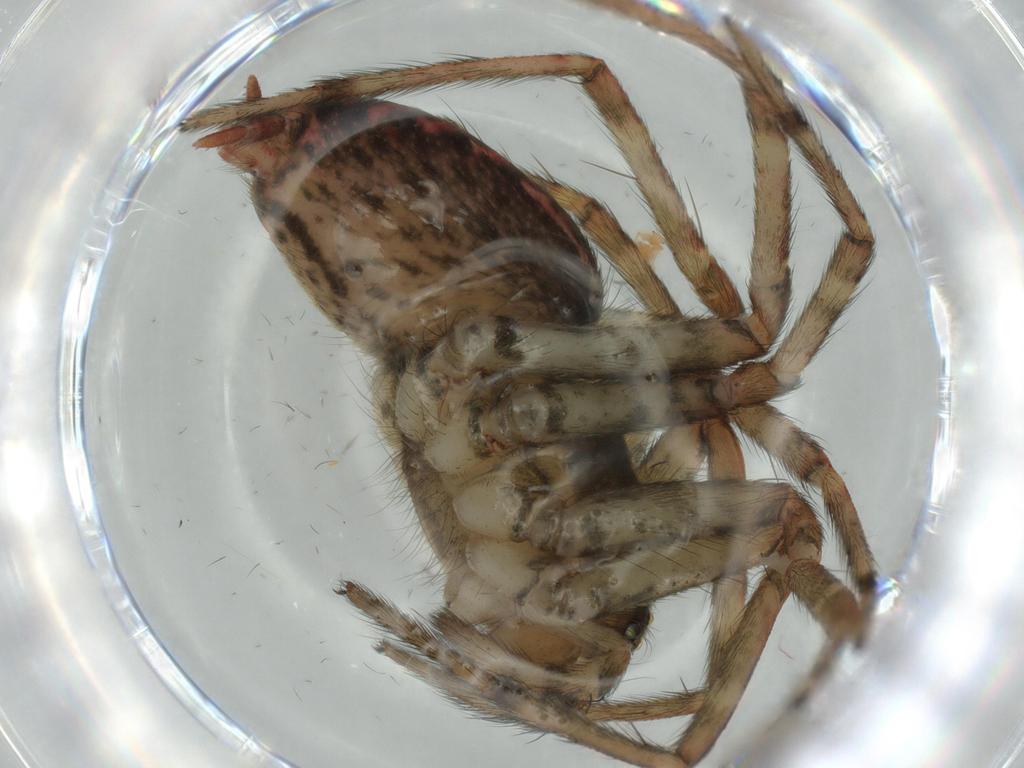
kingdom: Animalia
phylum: Arthropoda
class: Arachnida
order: Araneae
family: Agelenidae
